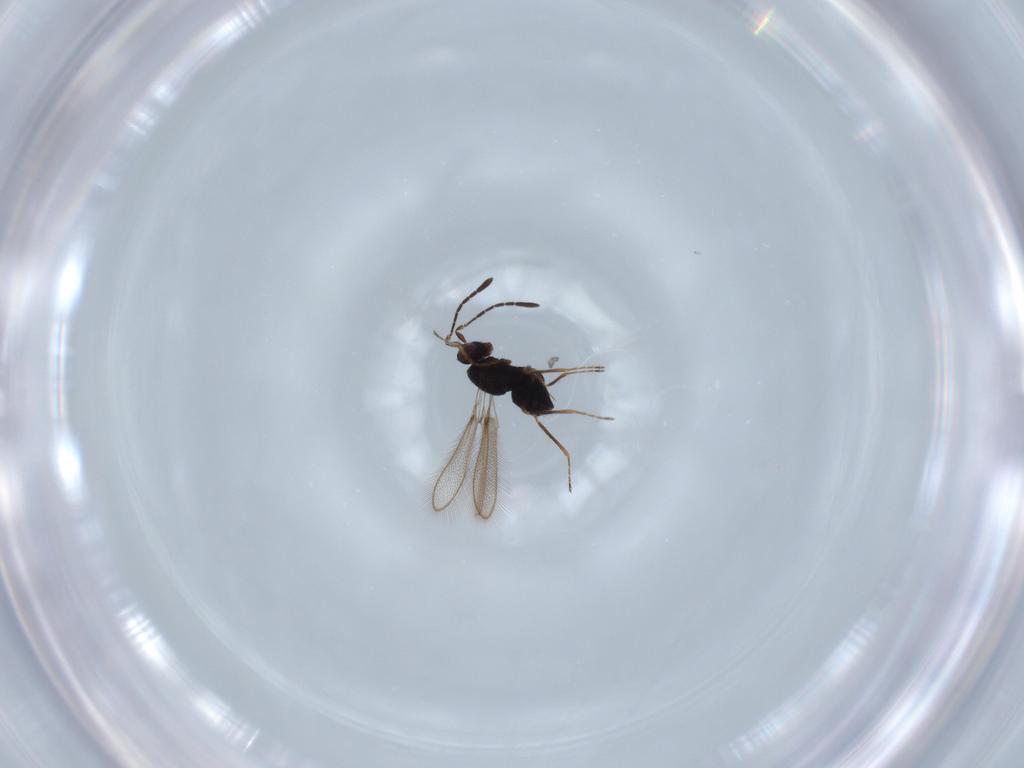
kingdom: Animalia
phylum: Arthropoda
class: Insecta
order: Hymenoptera
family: Mymaridae
